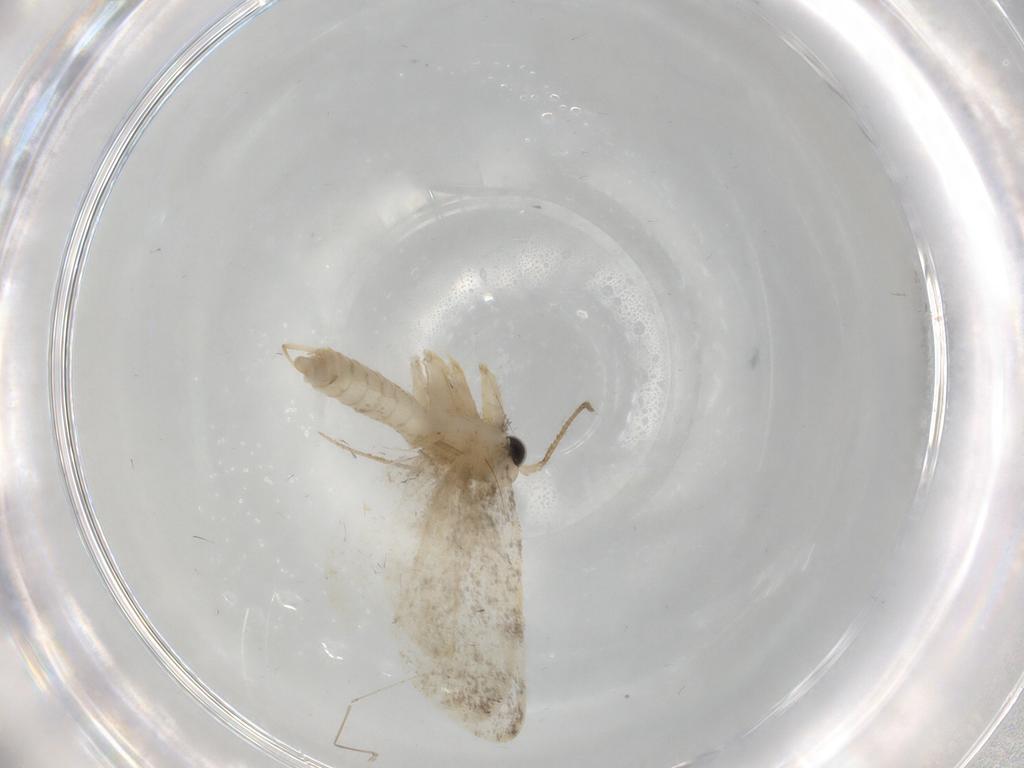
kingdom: Animalia
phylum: Arthropoda
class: Insecta
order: Lepidoptera
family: Psychidae
